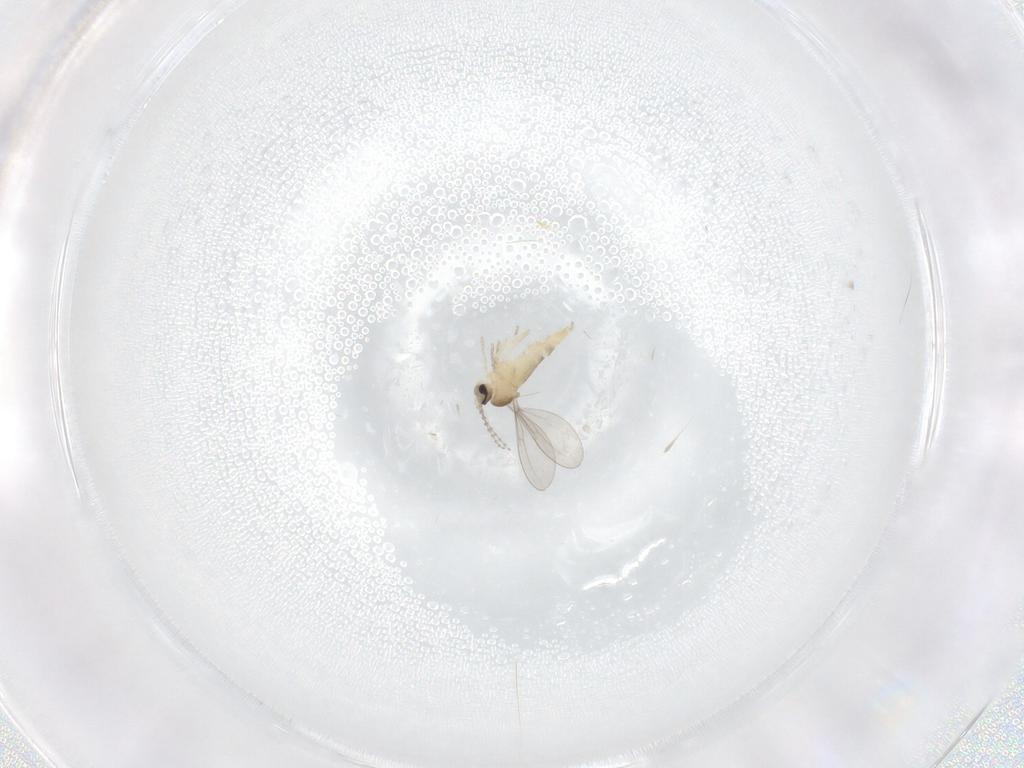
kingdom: Animalia
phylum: Arthropoda
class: Insecta
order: Diptera
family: Cecidomyiidae
